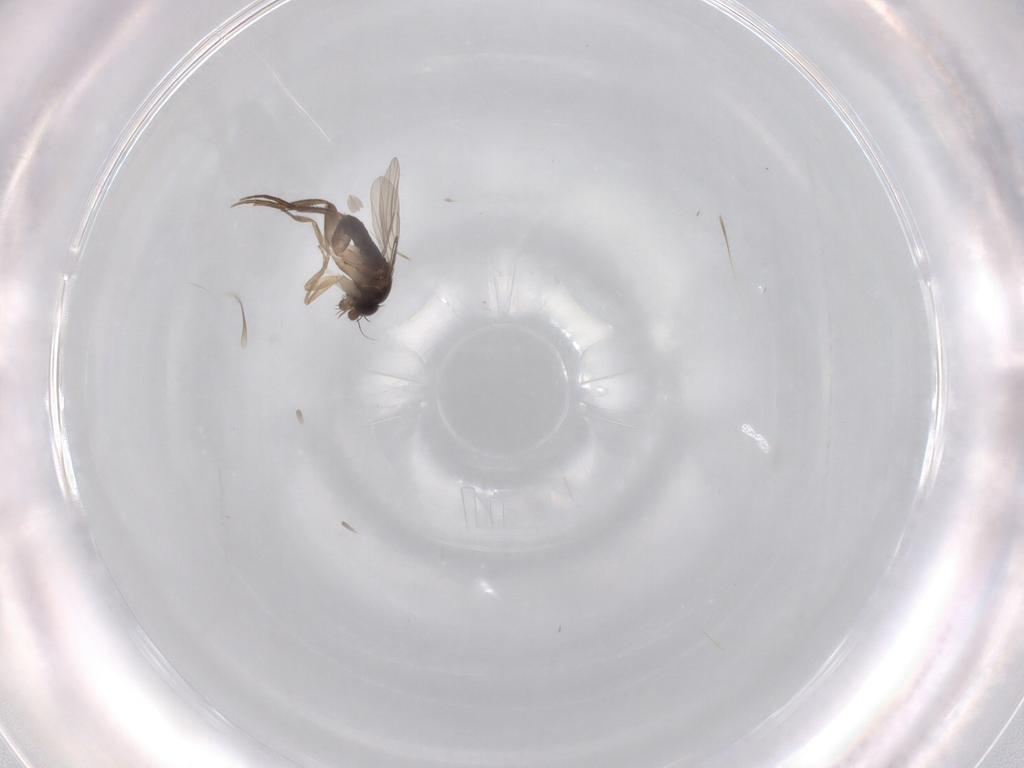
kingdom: Animalia
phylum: Arthropoda
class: Insecta
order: Diptera
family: Phoridae
